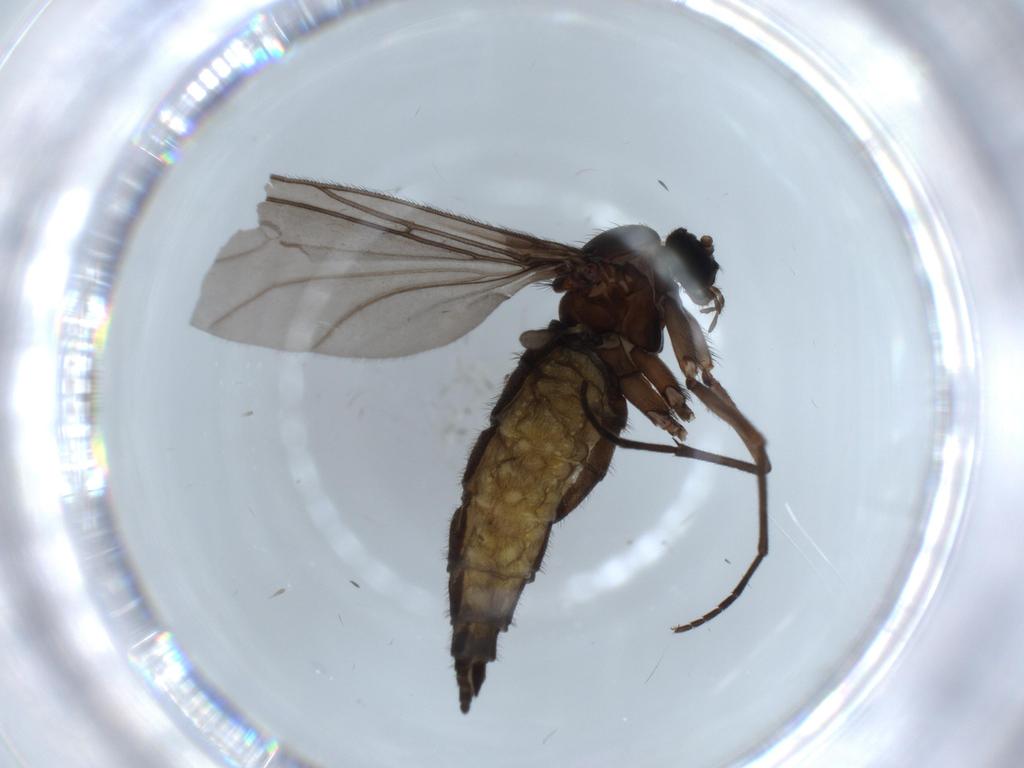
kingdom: Animalia
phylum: Arthropoda
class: Insecta
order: Diptera
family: Sciaridae
